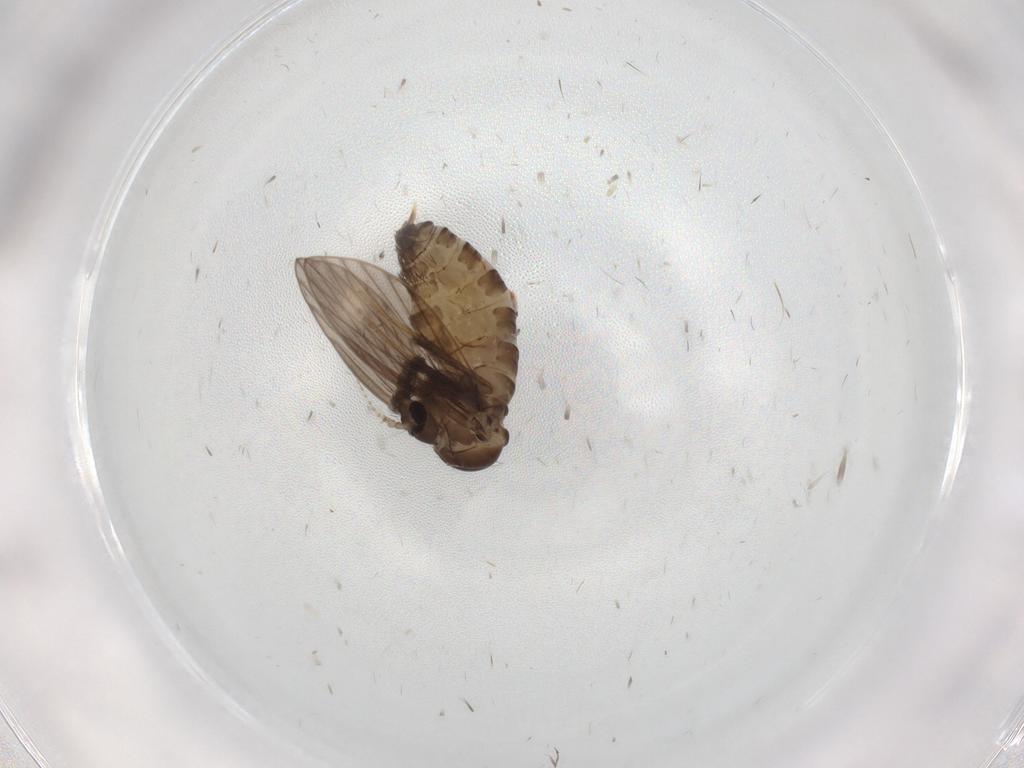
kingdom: Animalia
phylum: Arthropoda
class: Insecta
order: Diptera
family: Psychodidae
